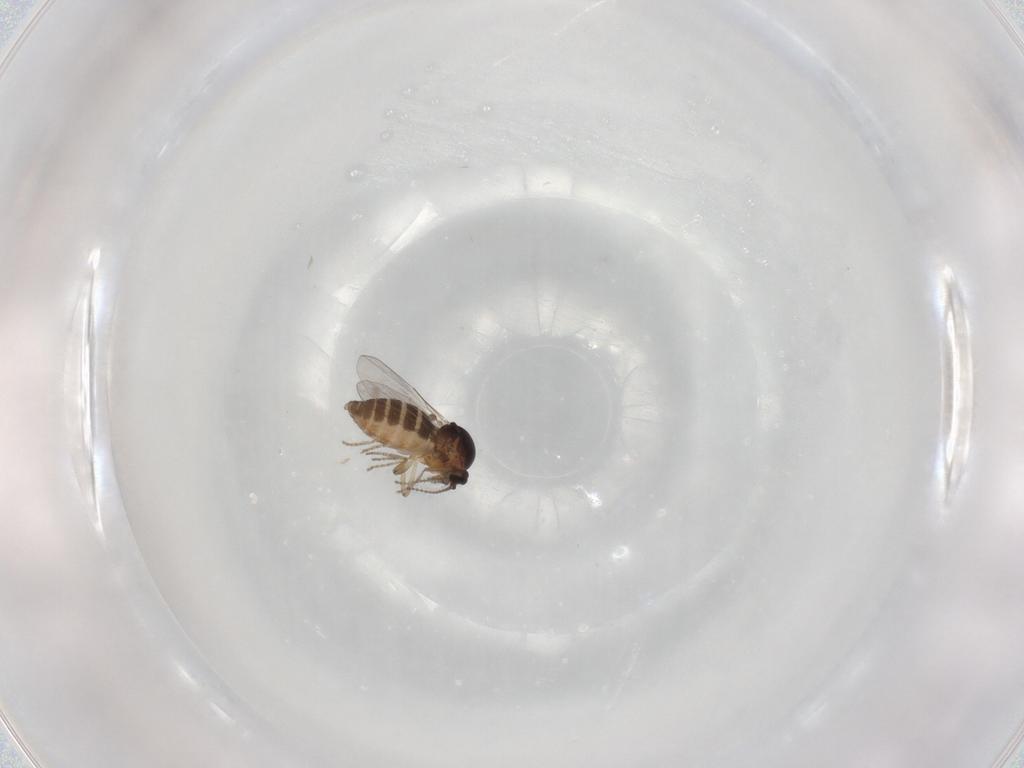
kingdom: Animalia
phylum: Arthropoda
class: Insecta
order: Diptera
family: Ceratopogonidae
